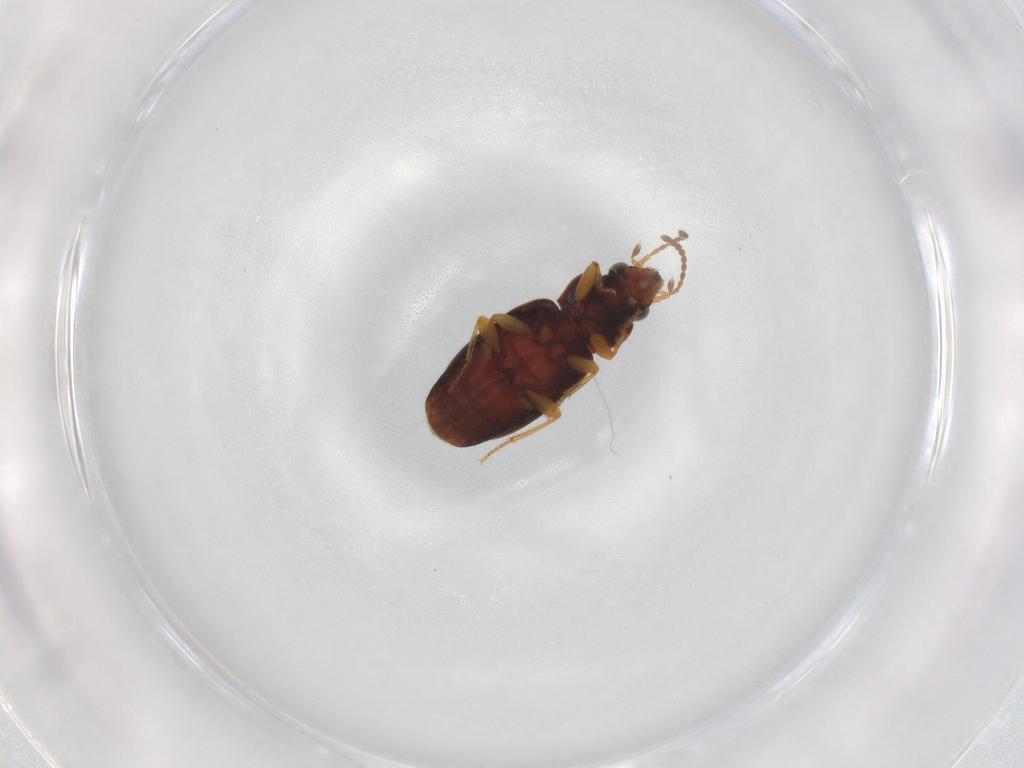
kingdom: Animalia
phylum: Arthropoda
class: Insecta
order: Coleoptera
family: Carabidae
